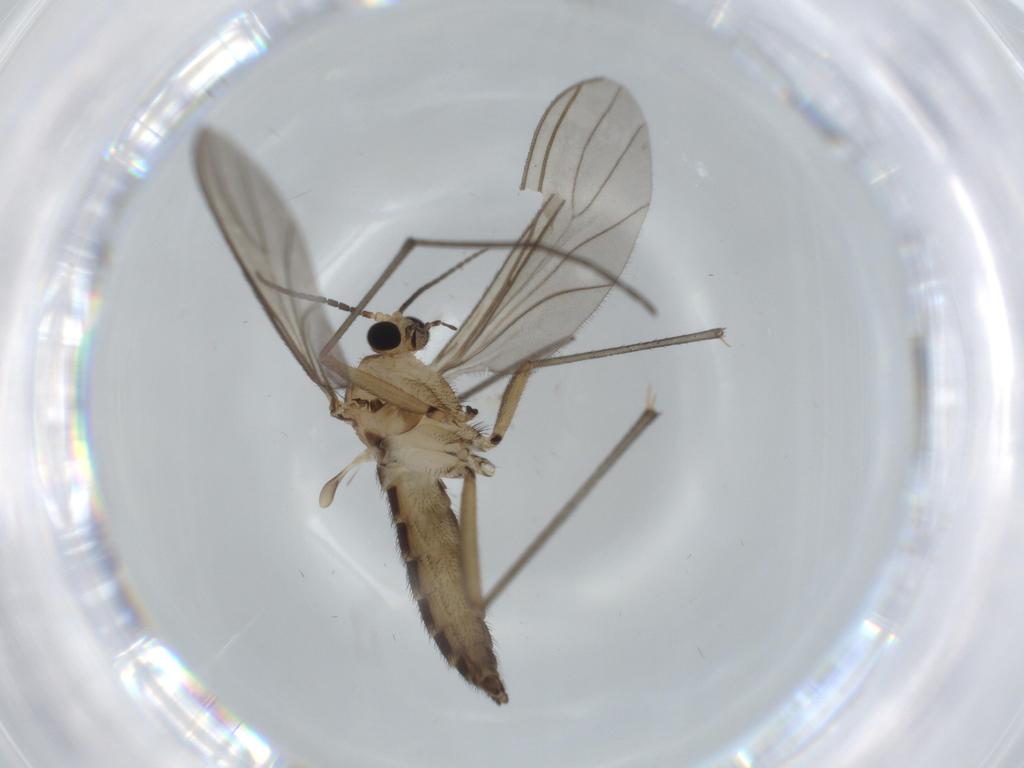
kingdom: Animalia
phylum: Arthropoda
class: Insecta
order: Diptera
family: Sciaridae
